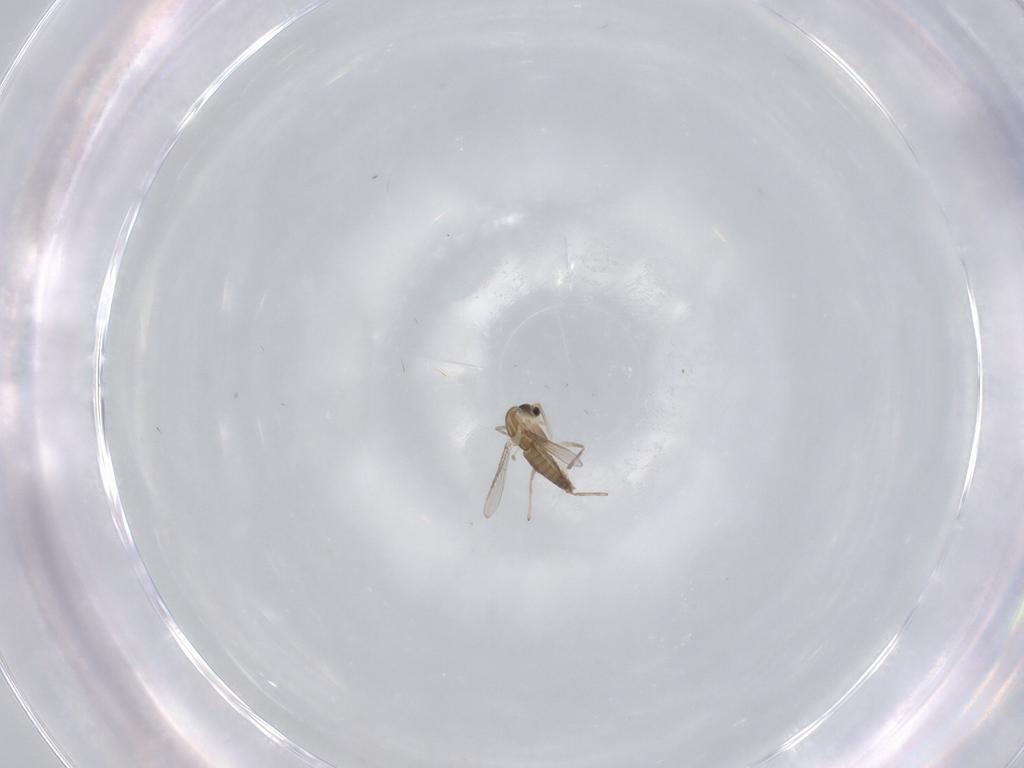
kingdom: Animalia
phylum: Arthropoda
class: Insecta
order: Diptera
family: Chironomidae
